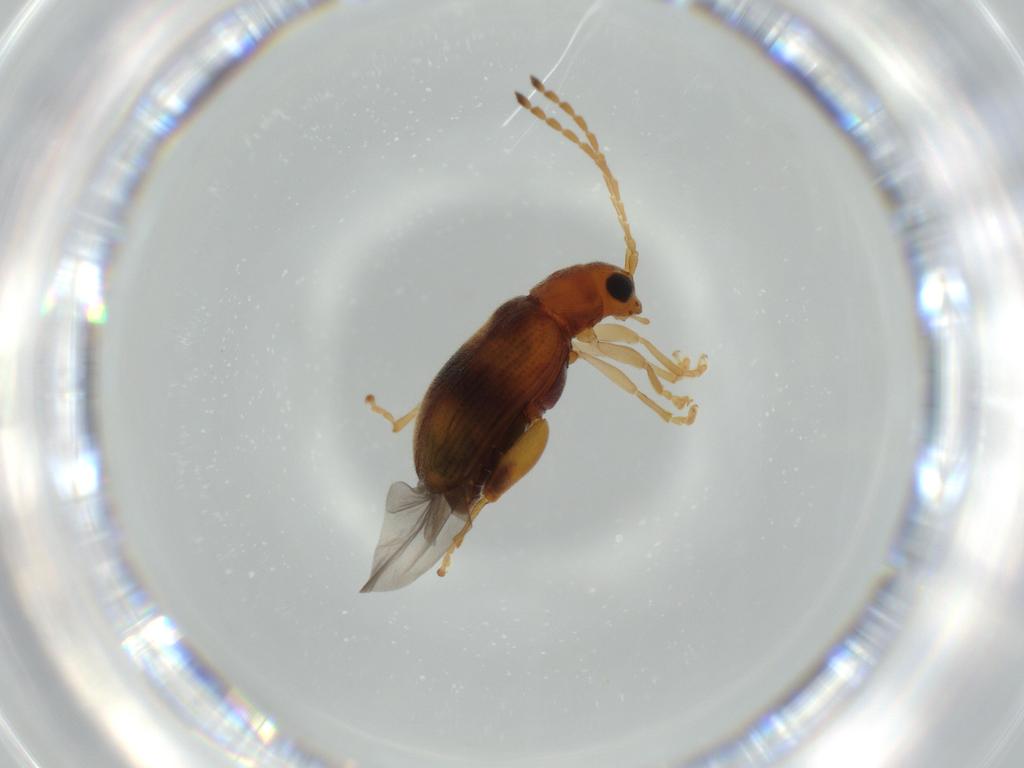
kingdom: Animalia
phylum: Arthropoda
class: Insecta
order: Coleoptera
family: Chrysomelidae
